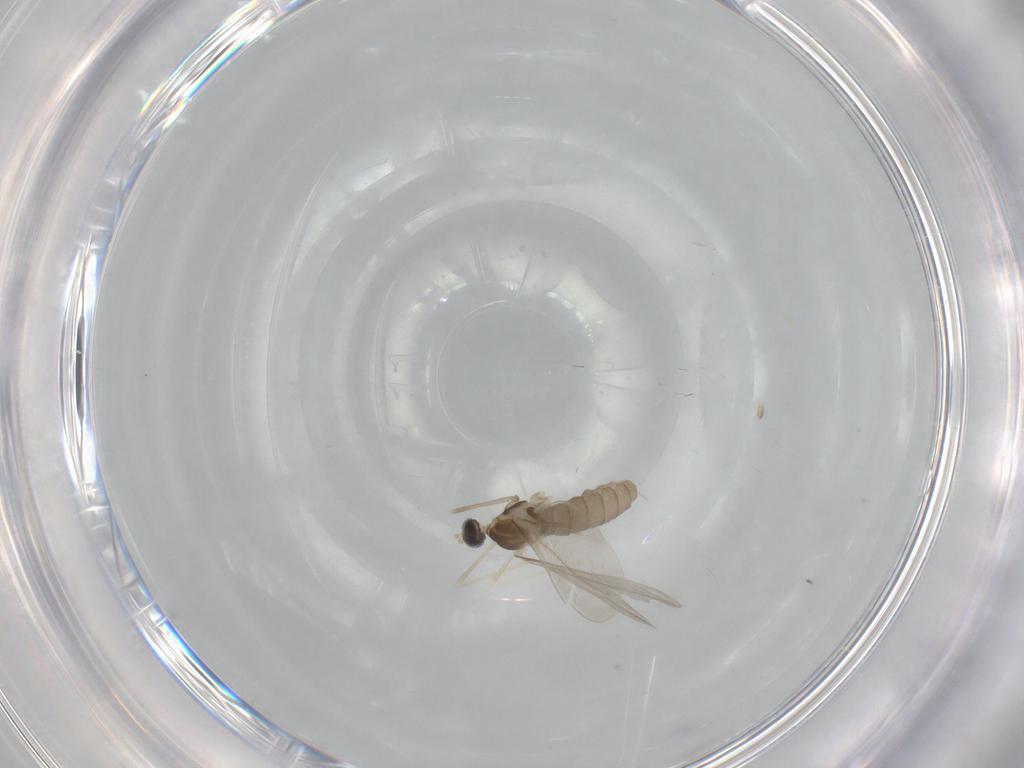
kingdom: Animalia
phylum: Arthropoda
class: Insecta
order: Diptera
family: Cecidomyiidae
